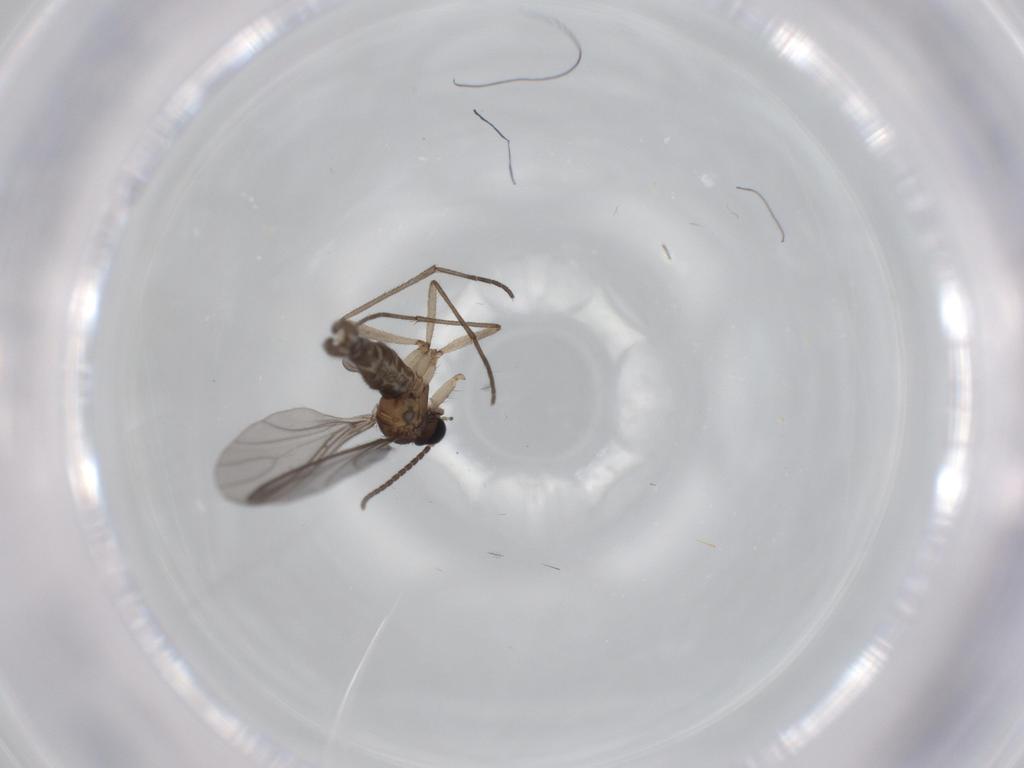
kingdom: Animalia
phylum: Arthropoda
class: Insecta
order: Diptera
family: Sciaridae
